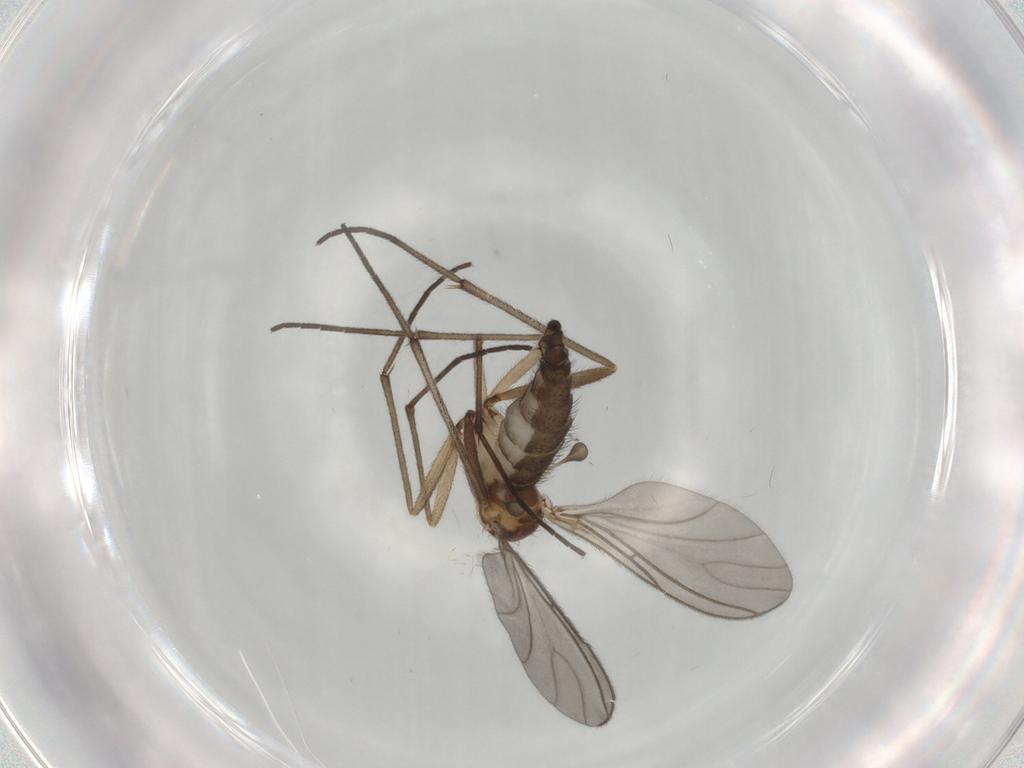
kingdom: Animalia
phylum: Arthropoda
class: Insecta
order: Diptera
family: Sciaridae
